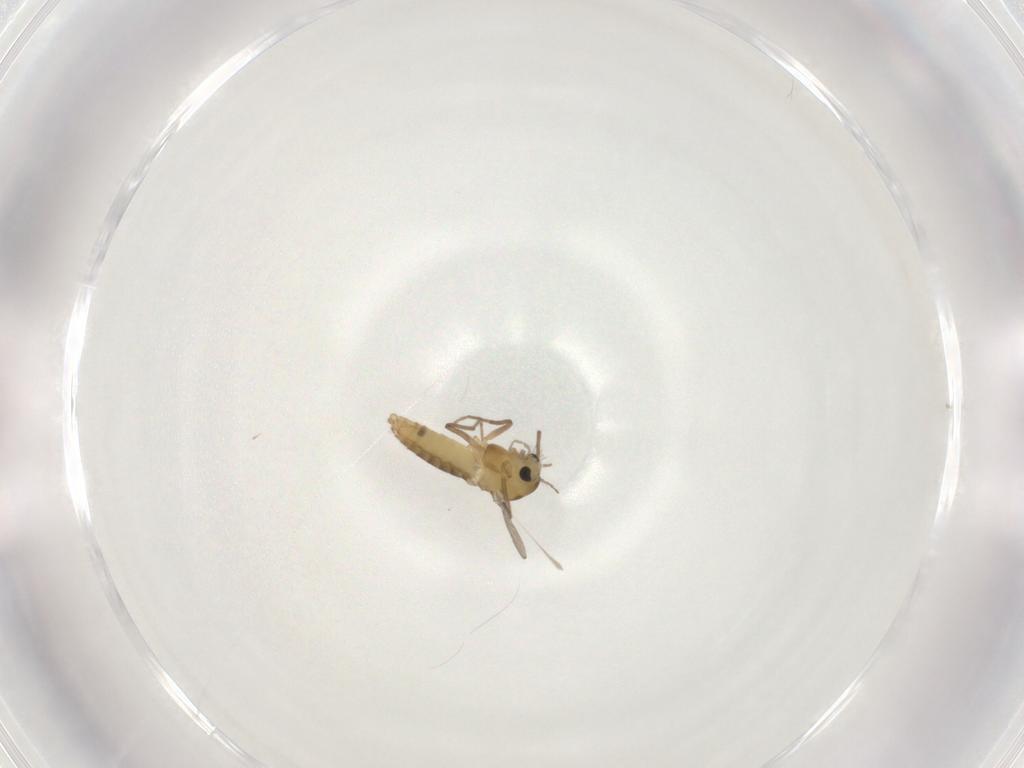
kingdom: Animalia
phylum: Arthropoda
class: Insecta
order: Diptera
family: Chironomidae
